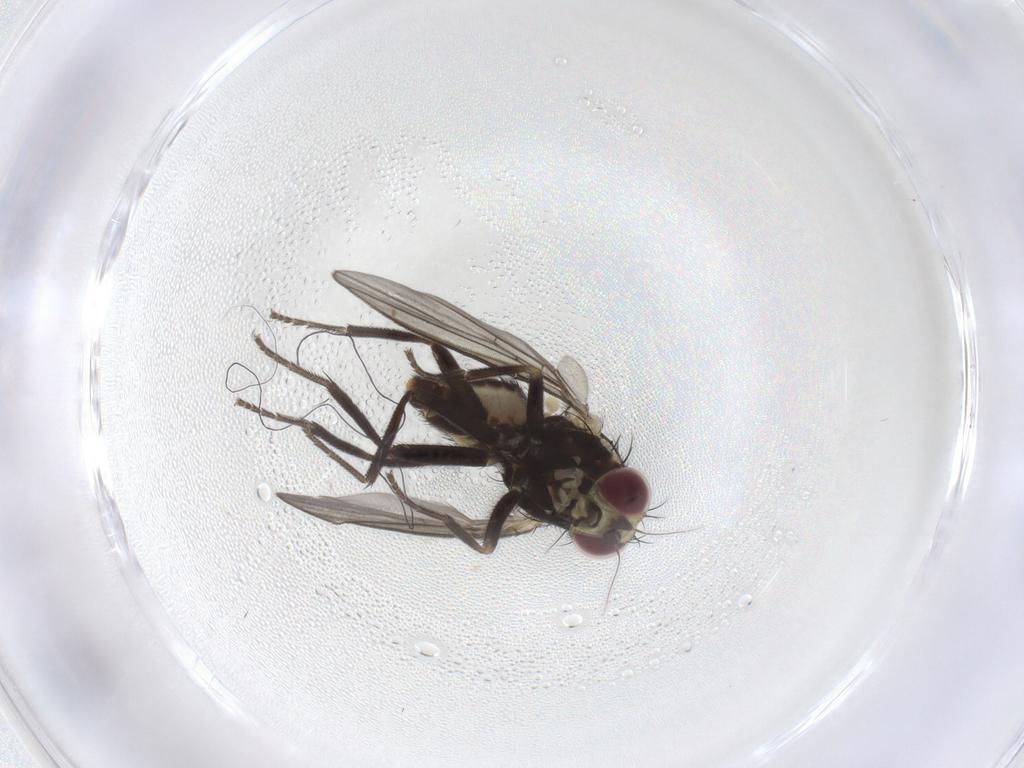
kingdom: Animalia
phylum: Arthropoda
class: Insecta
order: Diptera
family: Agromyzidae
